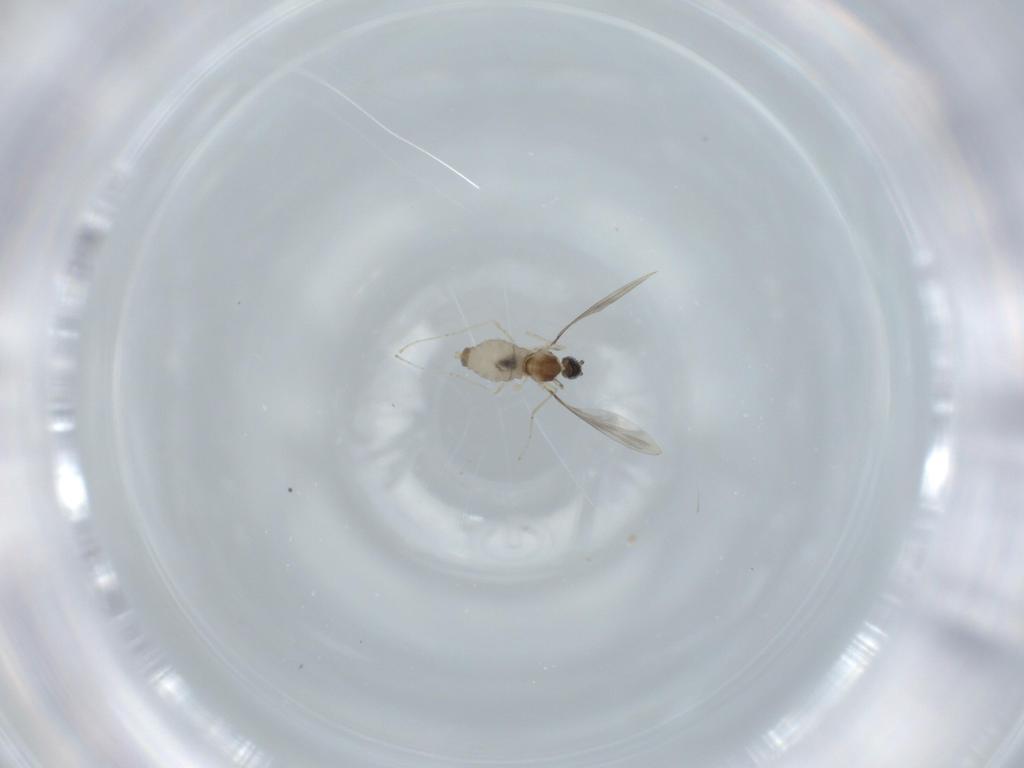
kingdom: Animalia
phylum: Arthropoda
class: Insecta
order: Diptera
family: Cecidomyiidae
